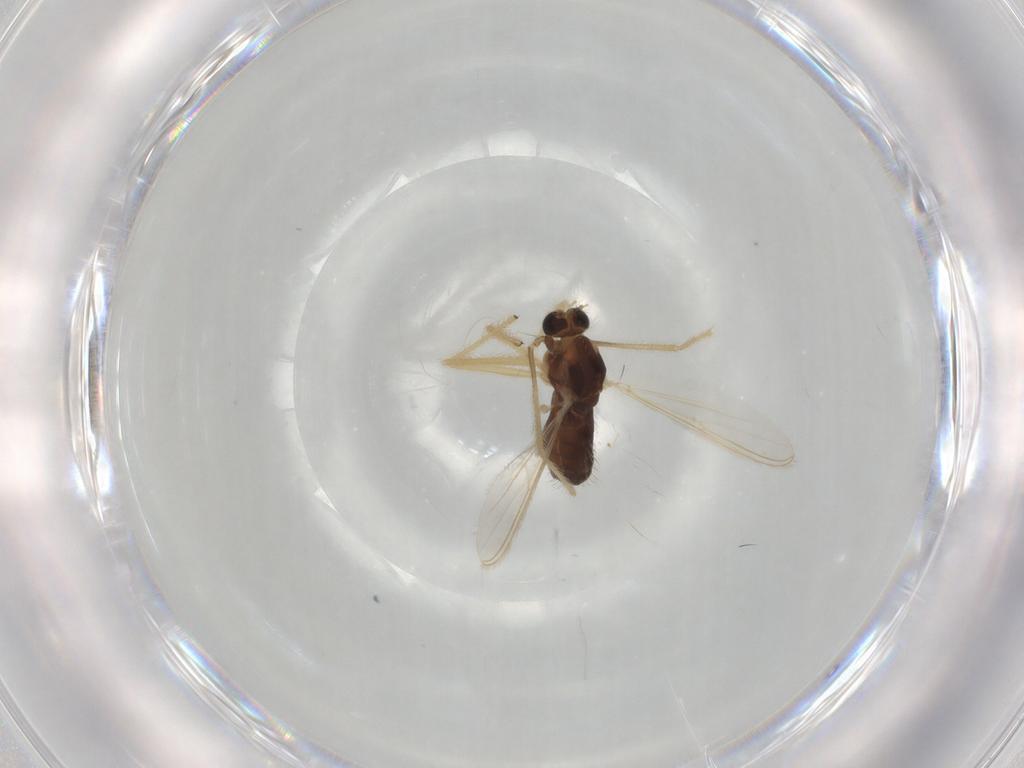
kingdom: Animalia
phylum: Arthropoda
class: Insecta
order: Diptera
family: Chironomidae
